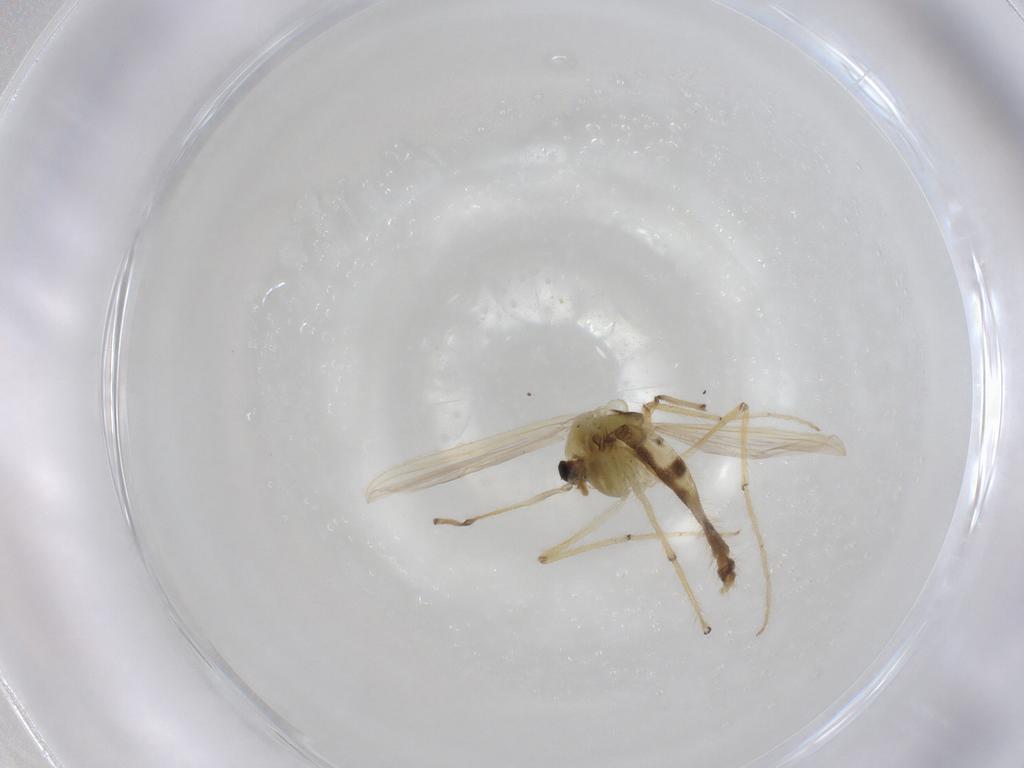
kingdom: Animalia
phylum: Arthropoda
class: Insecta
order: Diptera
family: Chironomidae
